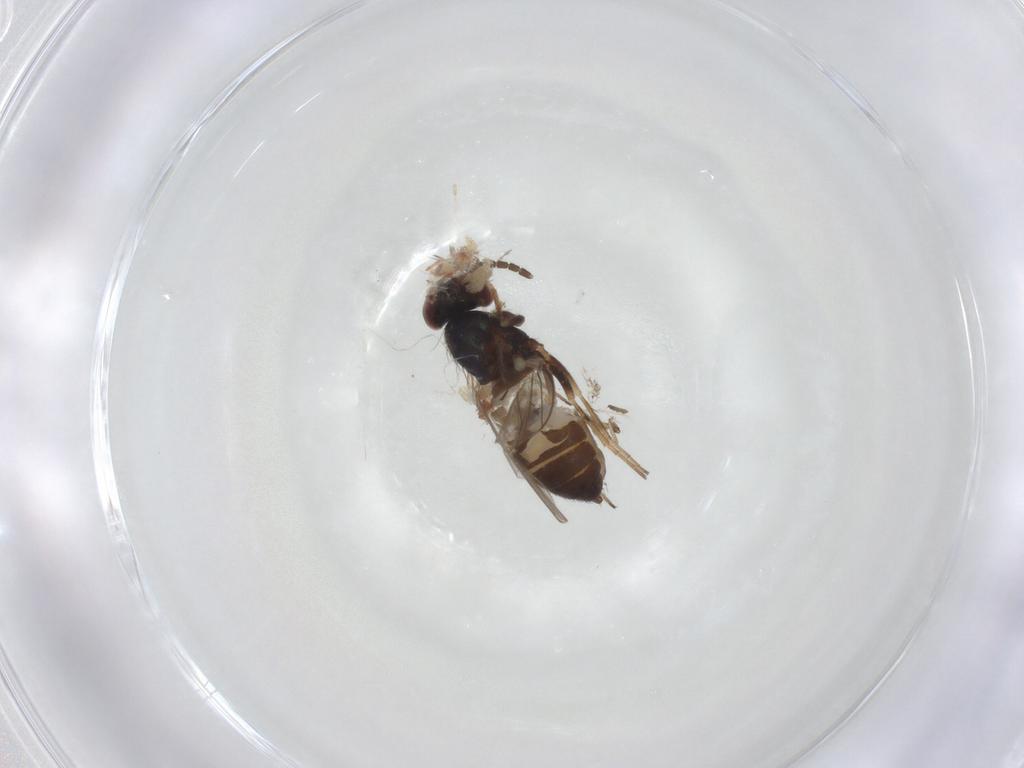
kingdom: Animalia
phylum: Arthropoda
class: Insecta
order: Diptera
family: Dolichopodidae
